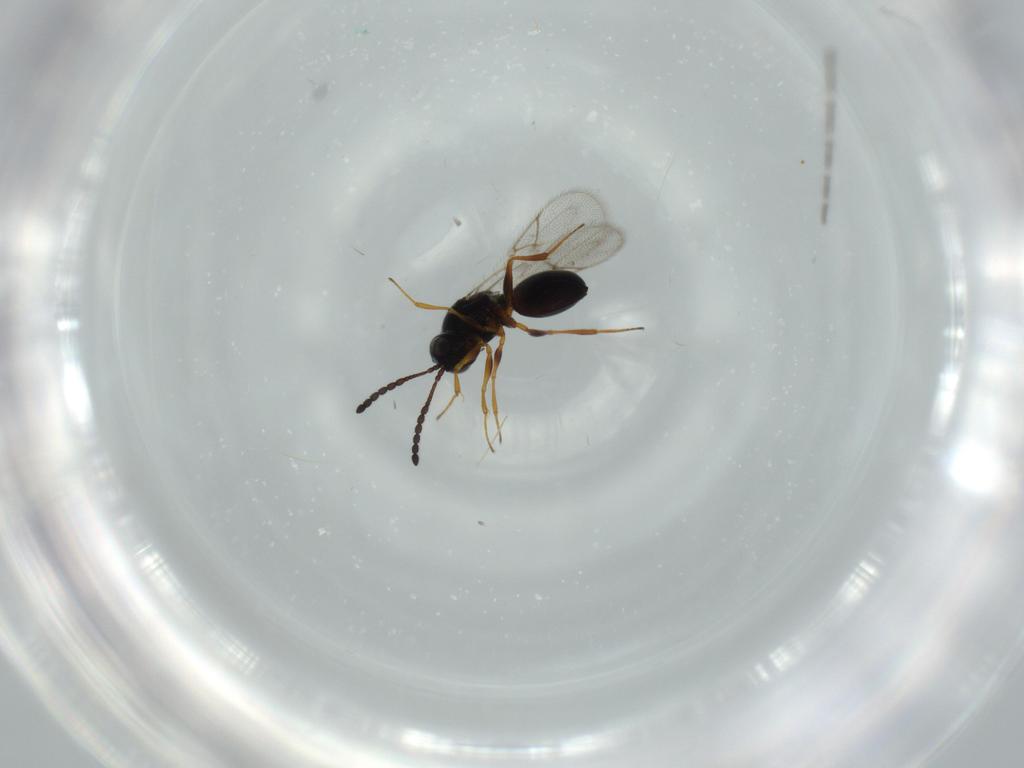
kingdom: Animalia
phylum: Arthropoda
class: Insecta
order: Hymenoptera
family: Figitidae
